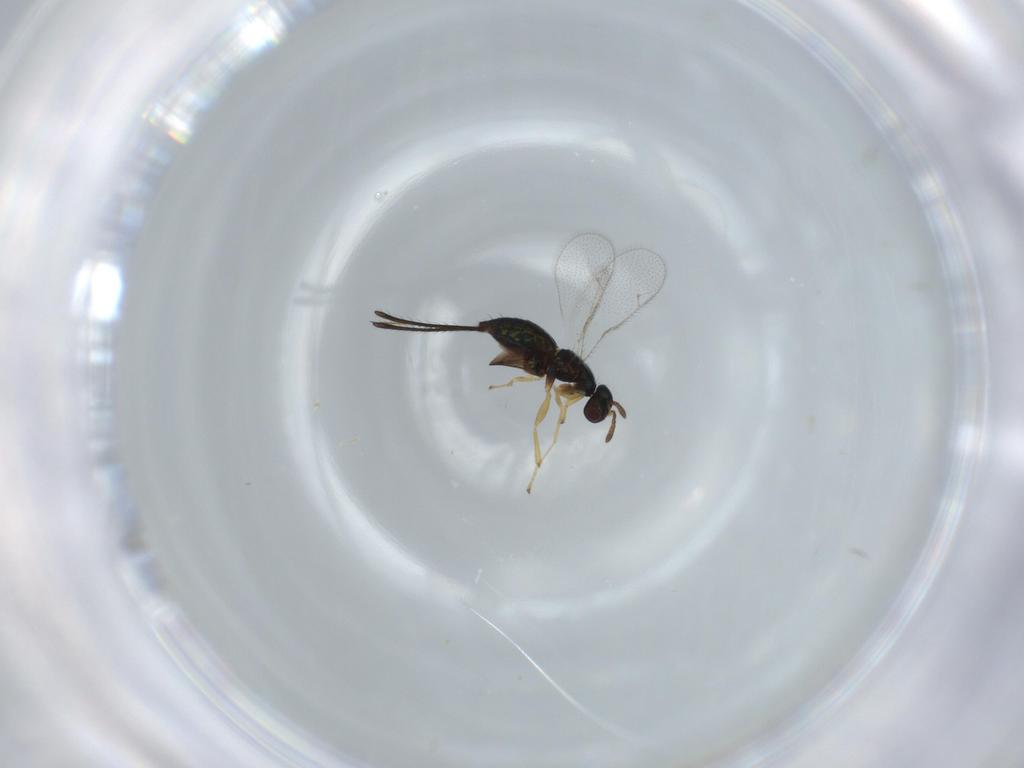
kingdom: Animalia
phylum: Arthropoda
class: Insecta
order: Hymenoptera
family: Torymidae
